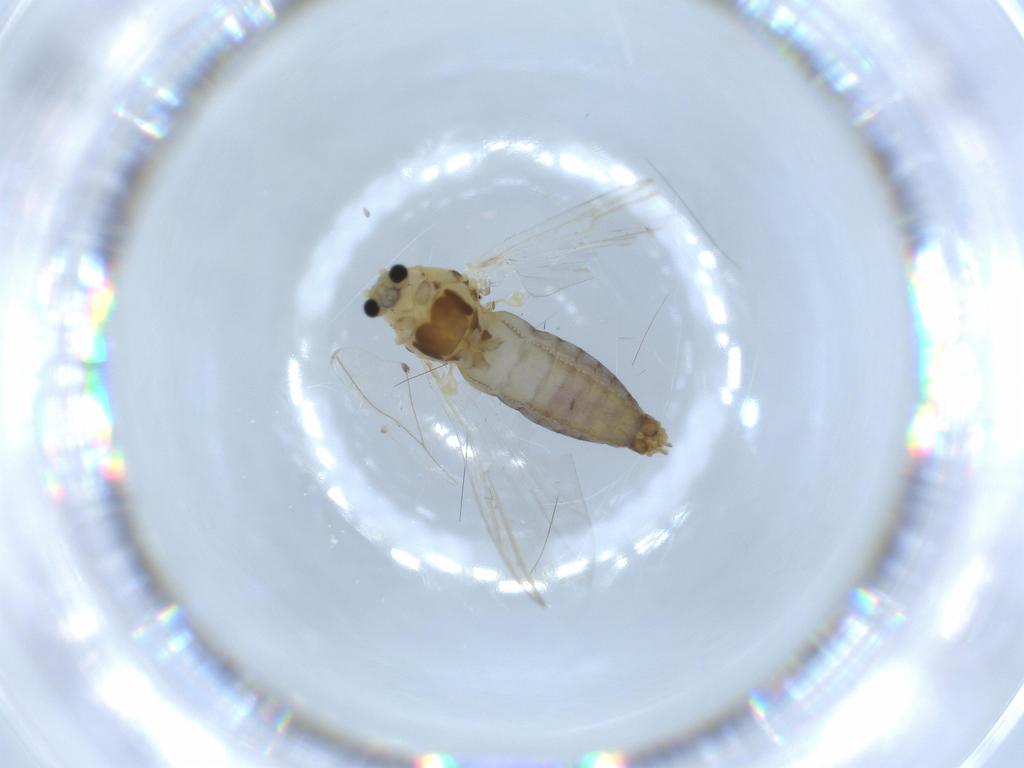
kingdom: Animalia
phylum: Arthropoda
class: Insecta
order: Diptera
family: Chironomidae
